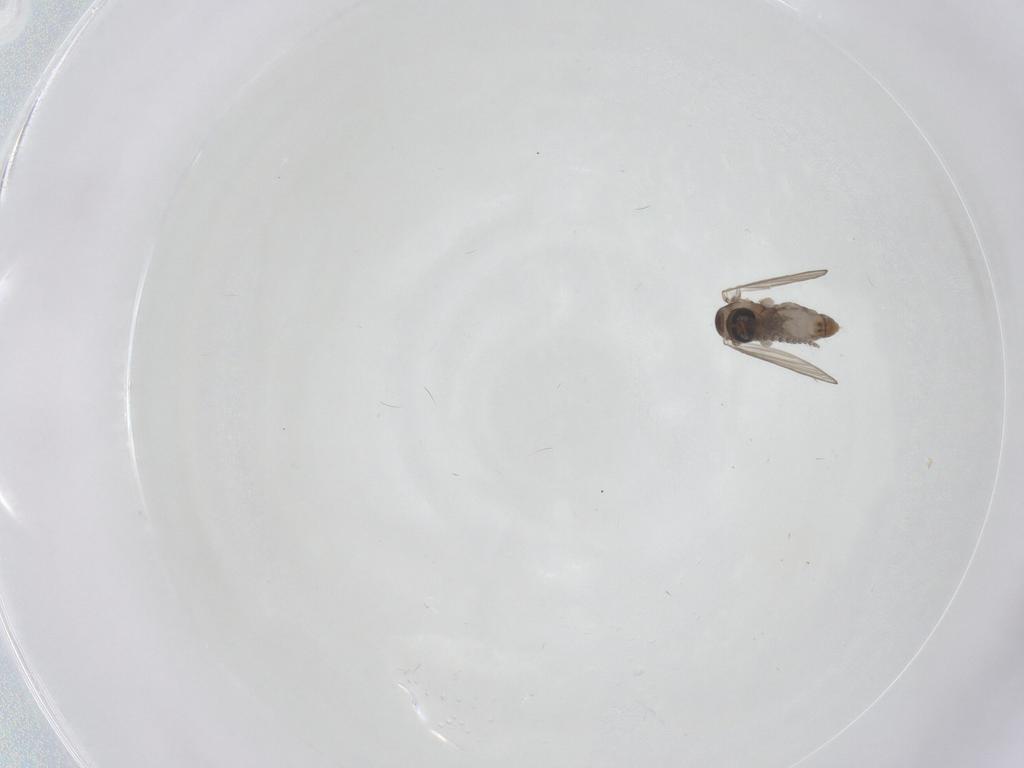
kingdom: Animalia
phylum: Arthropoda
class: Insecta
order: Diptera
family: Psychodidae
